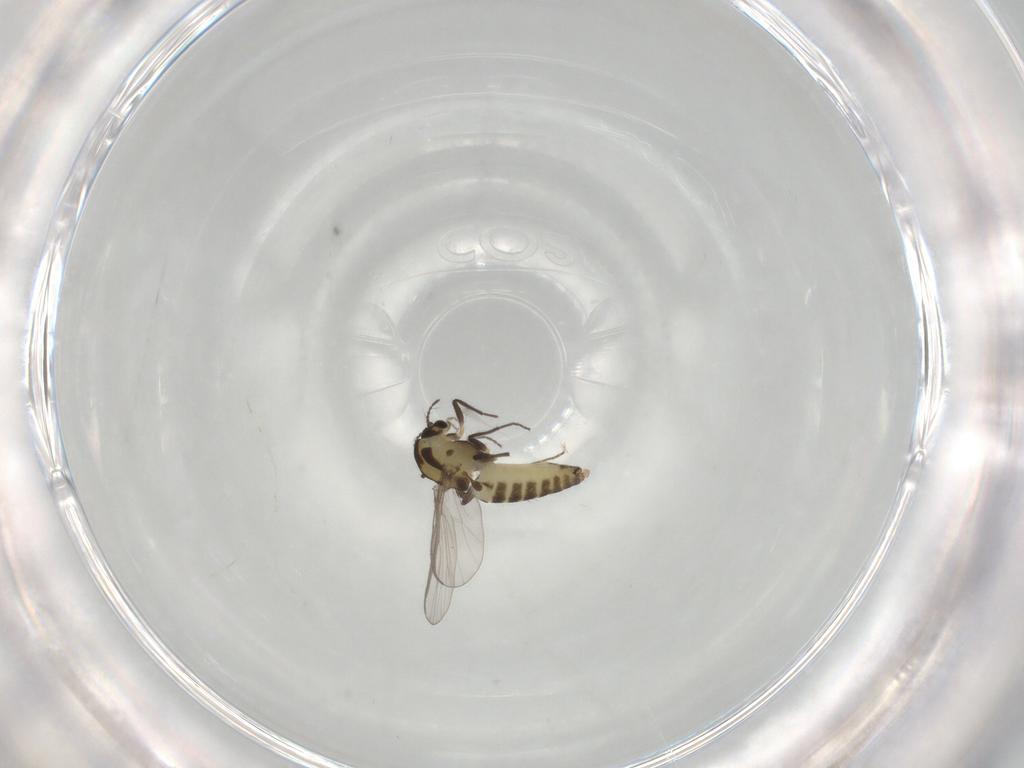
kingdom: Animalia
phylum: Arthropoda
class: Insecta
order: Diptera
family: Chironomidae
